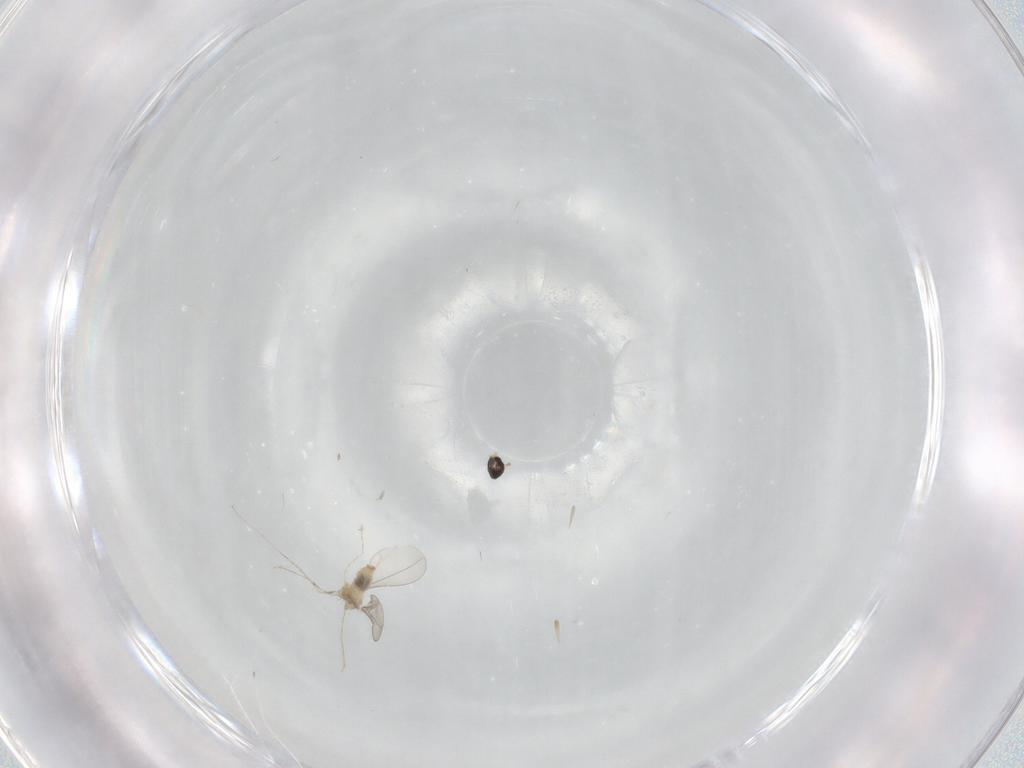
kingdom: Animalia
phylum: Arthropoda
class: Insecta
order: Diptera
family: Cecidomyiidae
